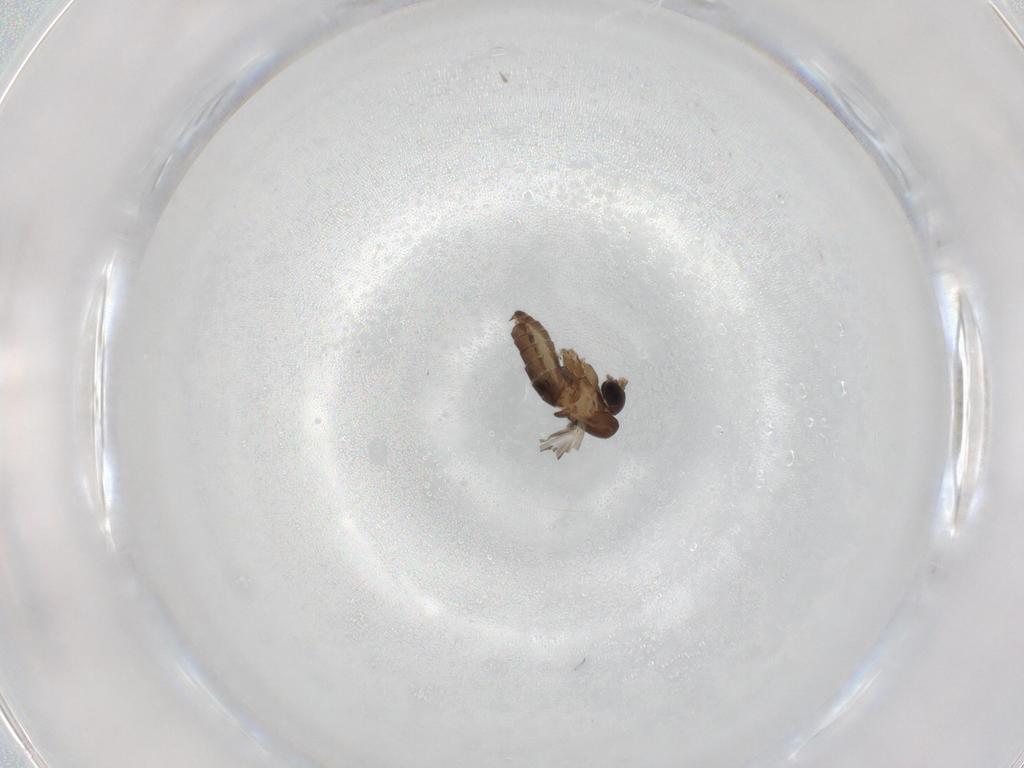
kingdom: Animalia
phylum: Arthropoda
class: Insecta
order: Diptera
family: Psychodidae
